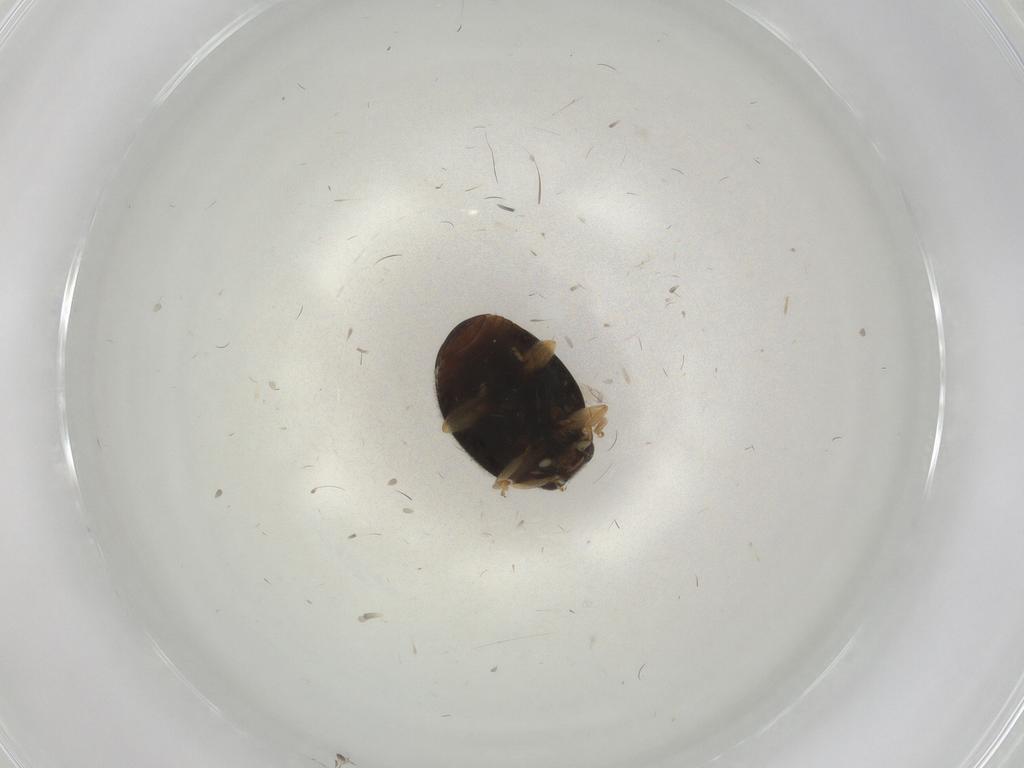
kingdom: Animalia
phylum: Arthropoda
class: Insecta
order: Coleoptera
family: Coccinellidae
